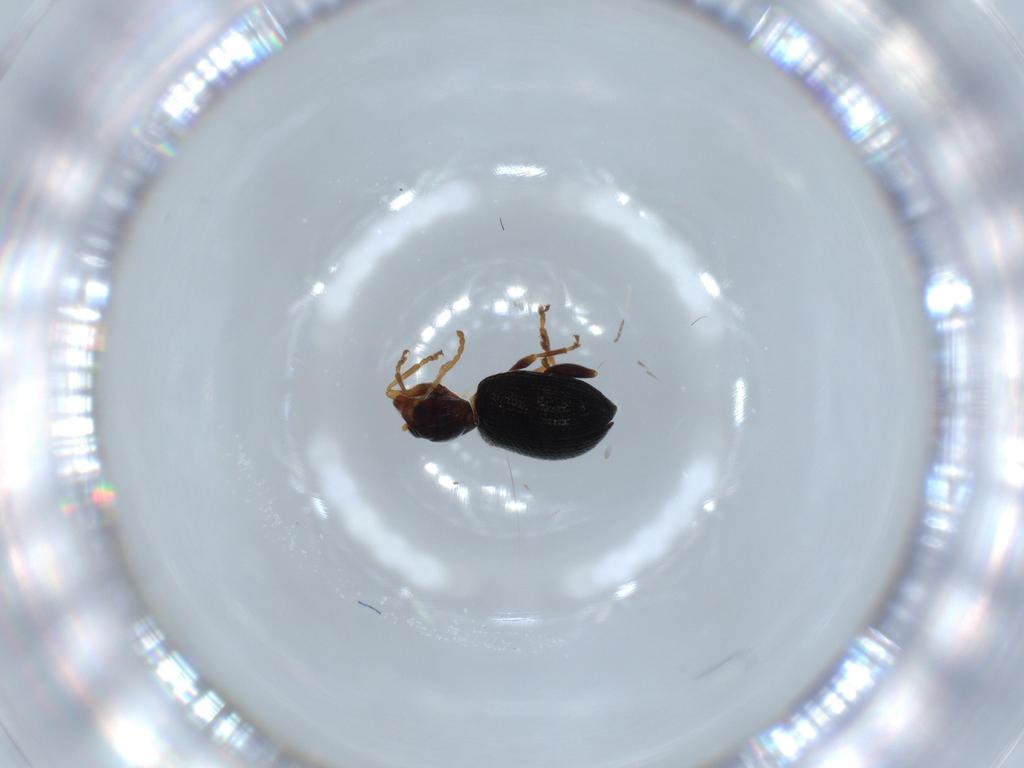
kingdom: Animalia
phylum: Arthropoda
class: Insecta
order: Coleoptera
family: Chrysomelidae
